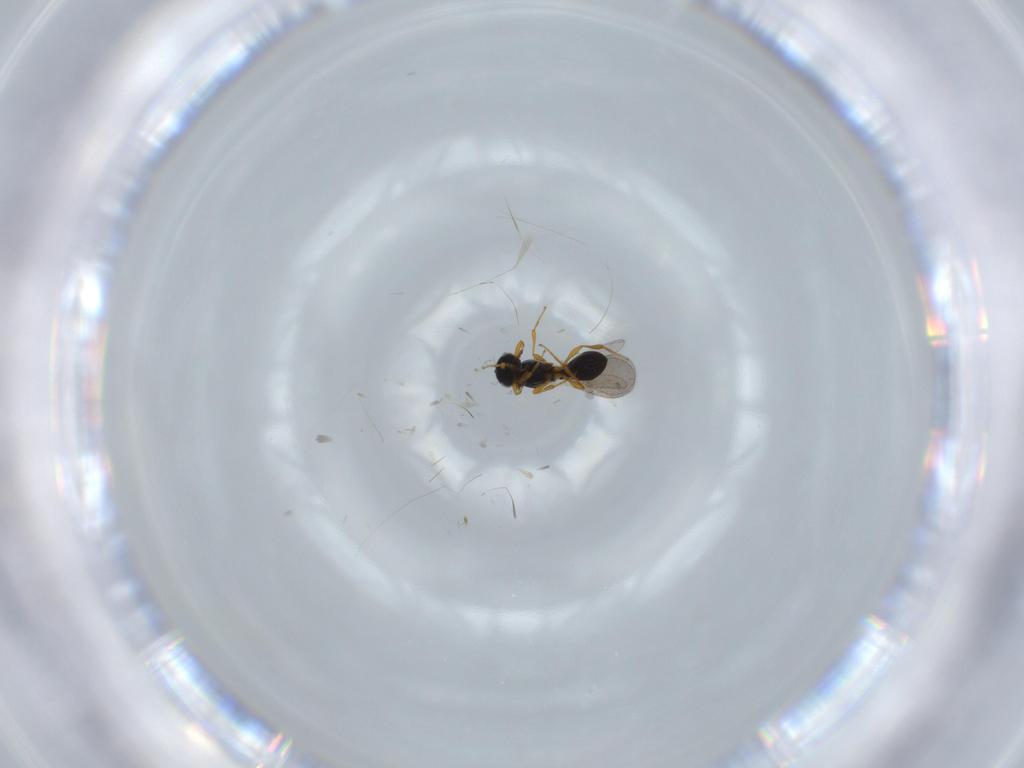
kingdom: Animalia
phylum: Arthropoda
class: Insecta
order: Hymenoptera
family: Platygastridae
